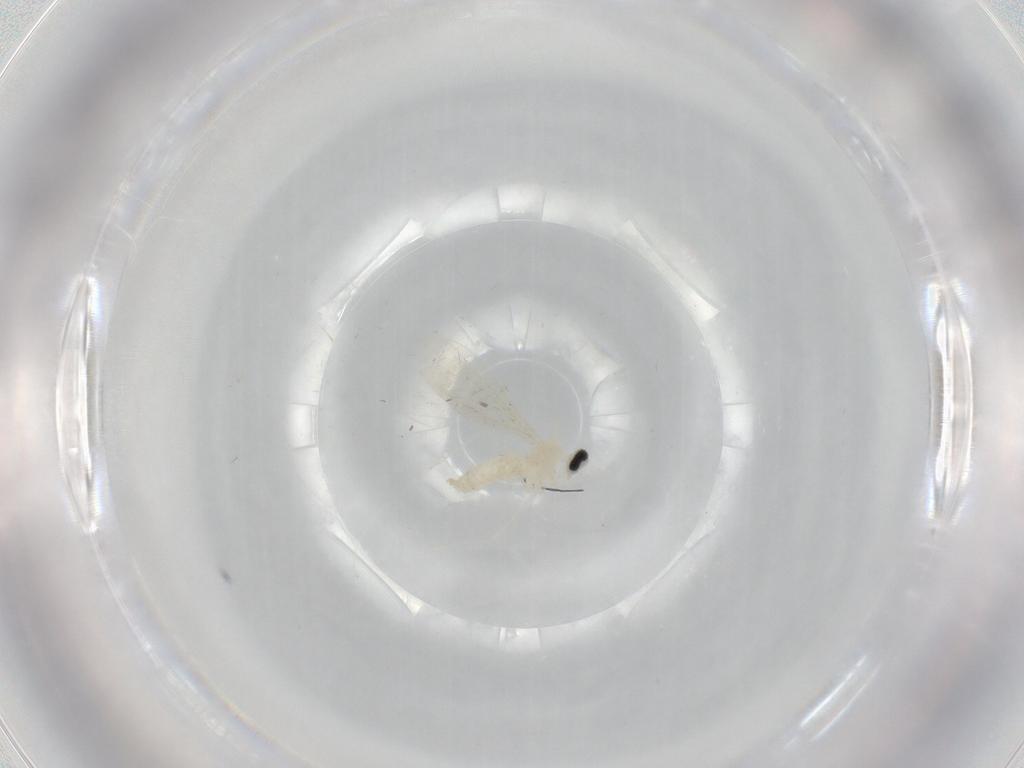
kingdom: Animalia
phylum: Arthropoda
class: Insecta
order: Diptera
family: Cecidomyiidae
